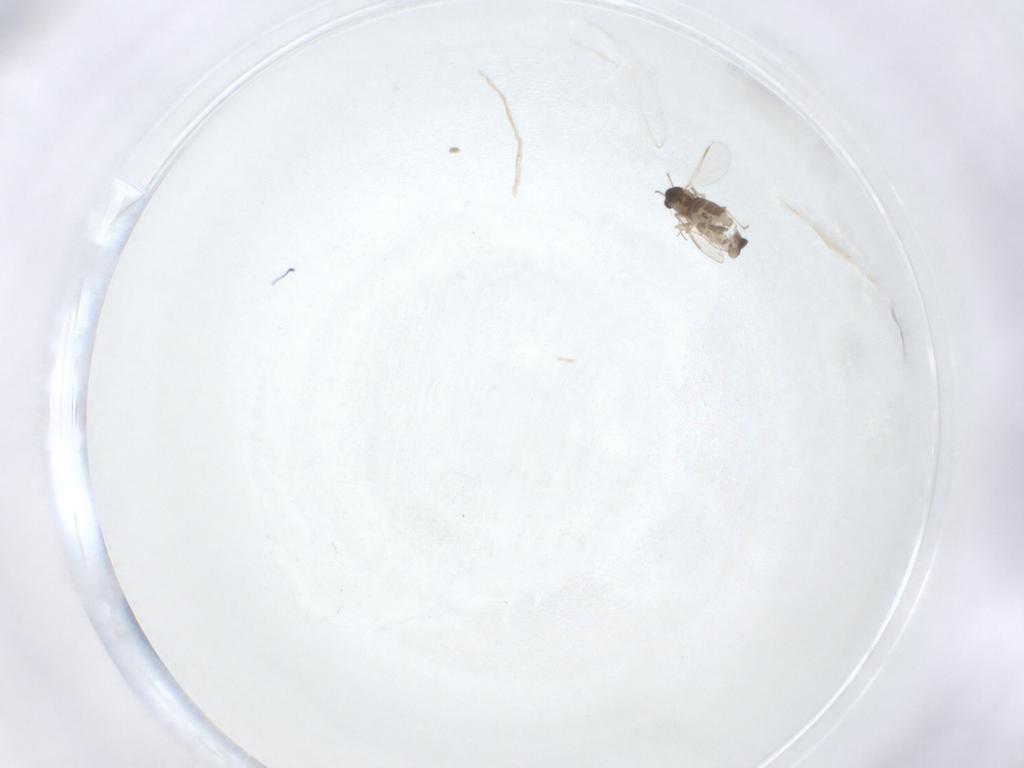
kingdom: Animalia
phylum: Arthropoda
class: Insecta
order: Diptera
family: Chironomidae
